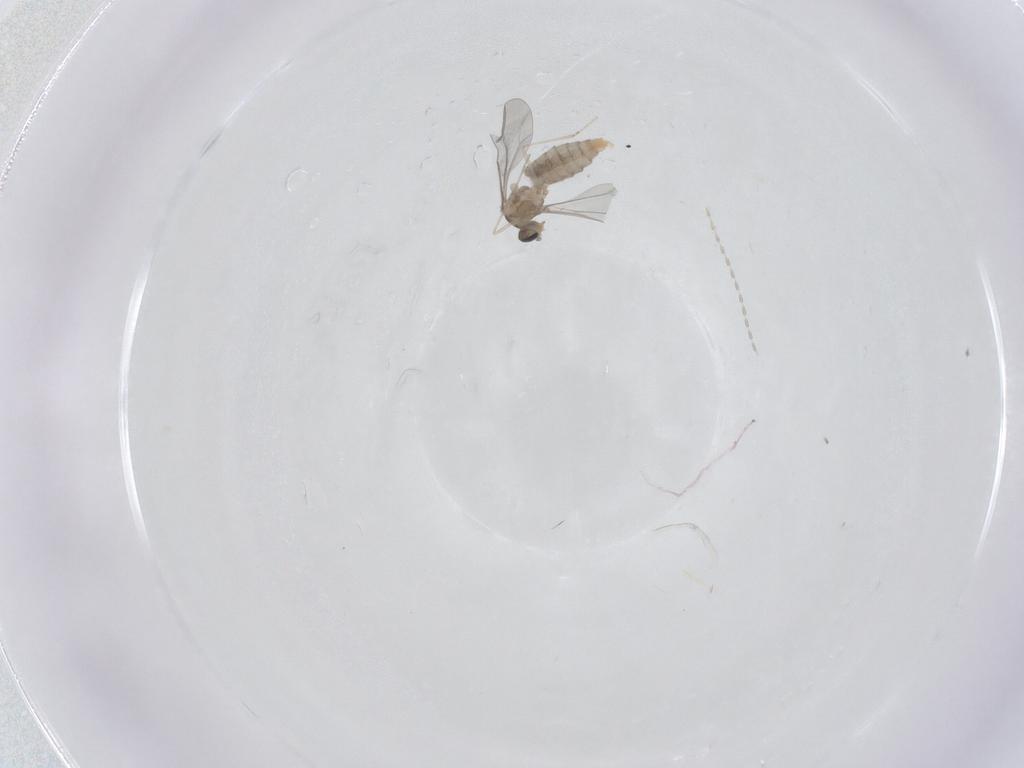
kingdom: Animalia
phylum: Arthropoda
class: Insecta
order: Diptera
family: Cecidomyiidae
